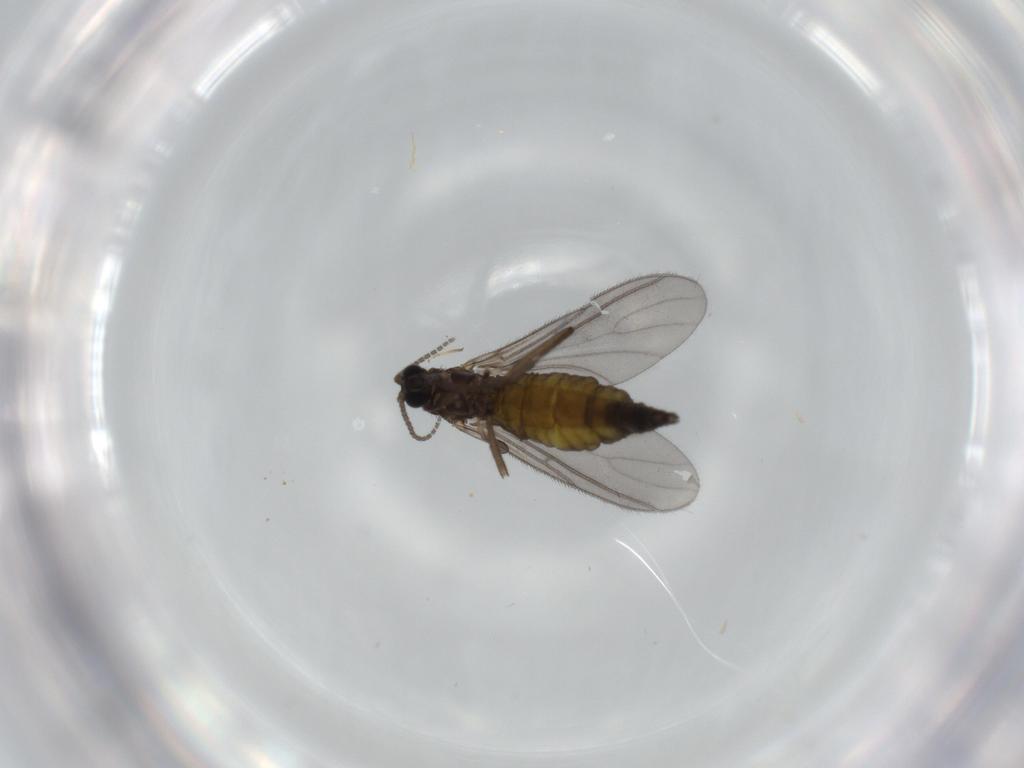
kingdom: Animalia
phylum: Arthropoda
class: Insecta
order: Diptera
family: Sciaridae
